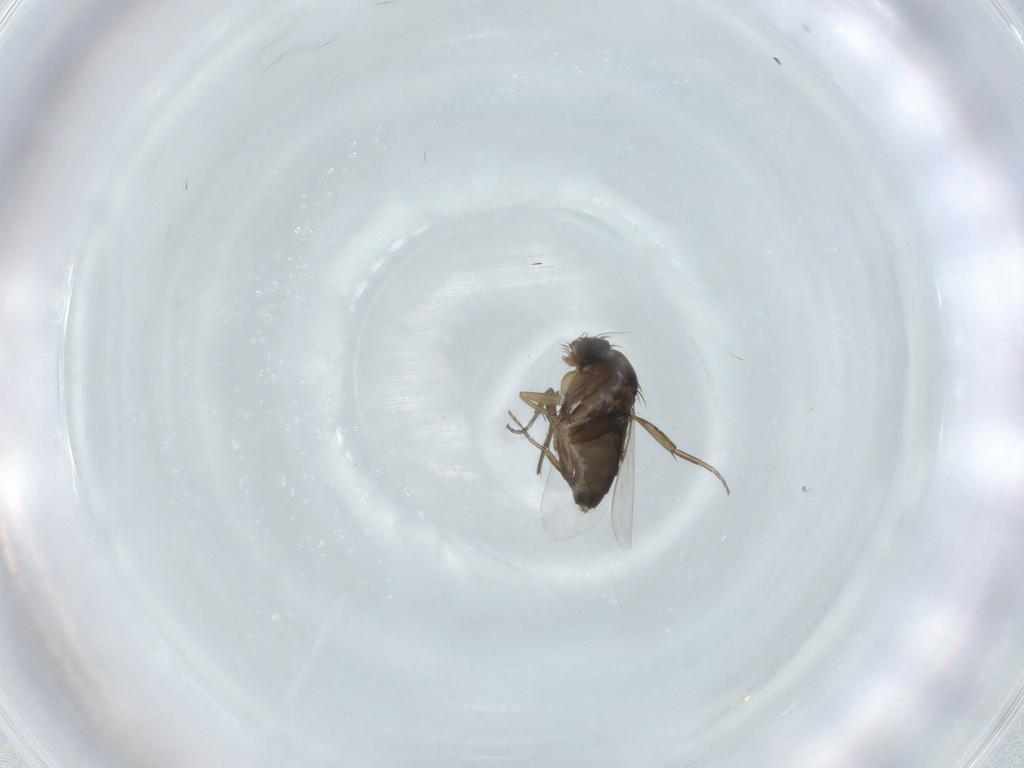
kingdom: Animalia
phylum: Arthropoda
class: Insecta
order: Diptera
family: Phoridae
